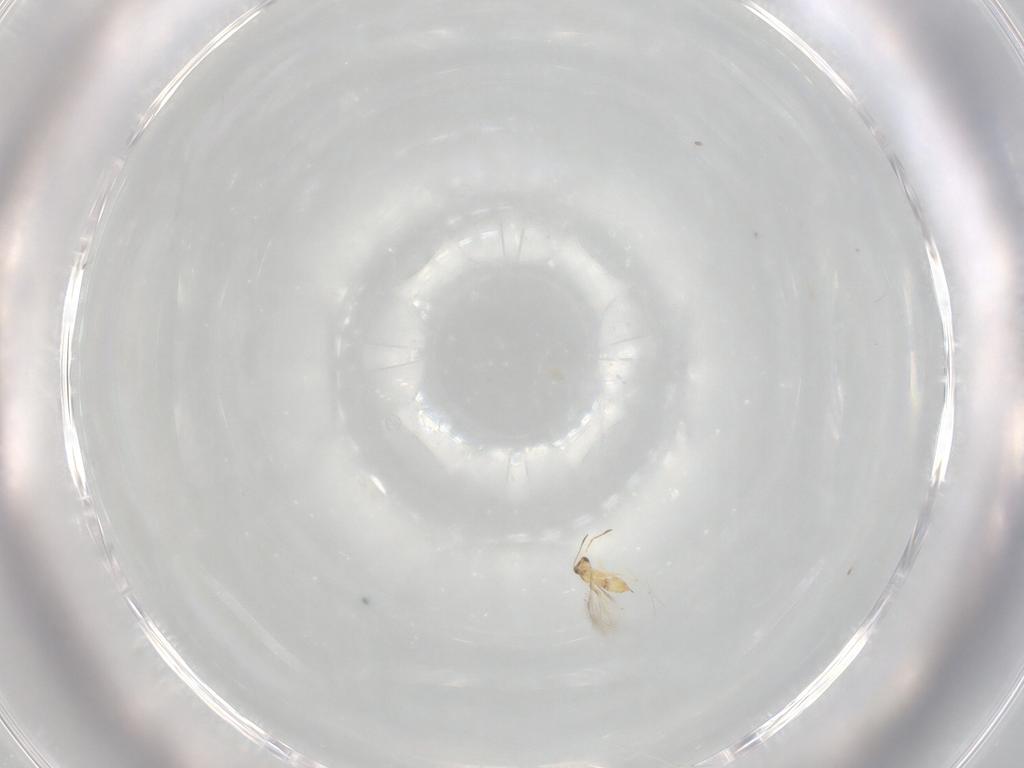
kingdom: Animalia
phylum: Arthropoda
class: Insecta
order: Hymenoptera
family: Mymaridae
